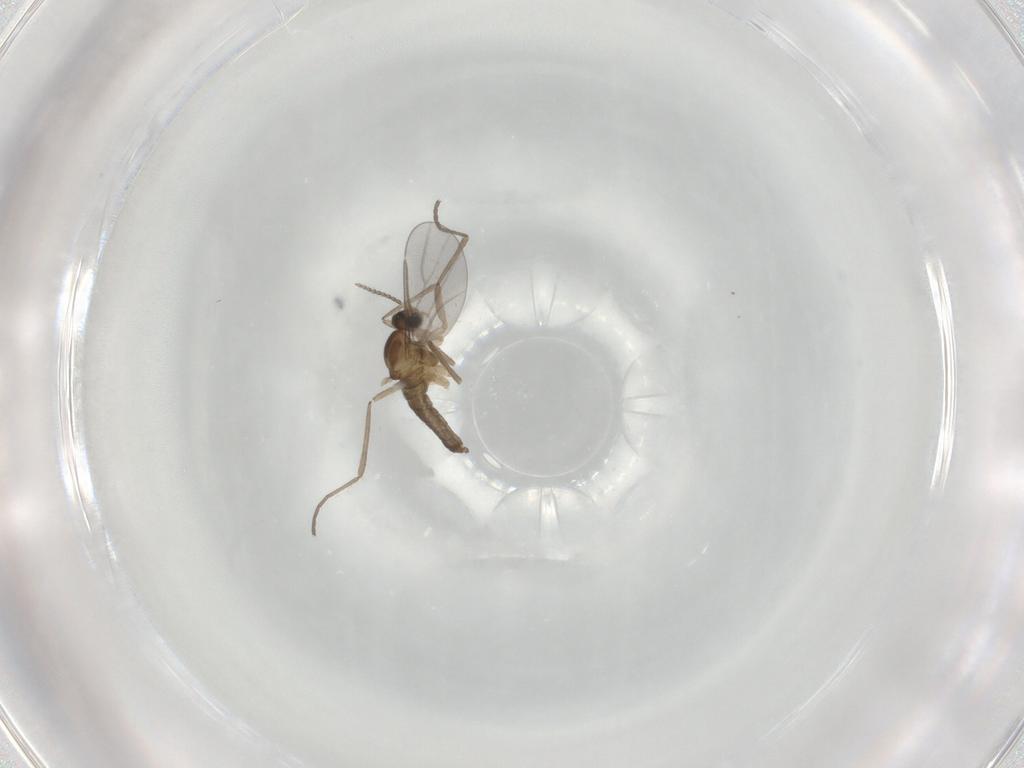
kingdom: Animalia
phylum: Arthropoda
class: Insecta
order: Diptera
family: Cecidomyiidae
